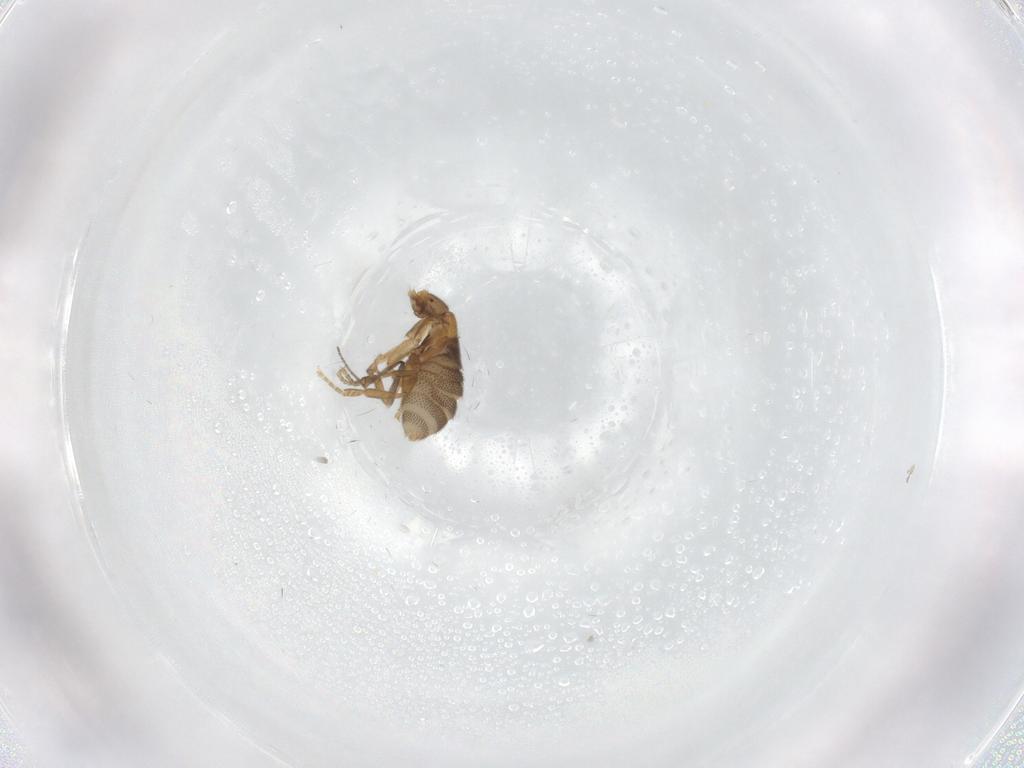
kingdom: Animalia
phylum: Arthropoda
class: Insecta
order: Diptera
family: Phoridae
